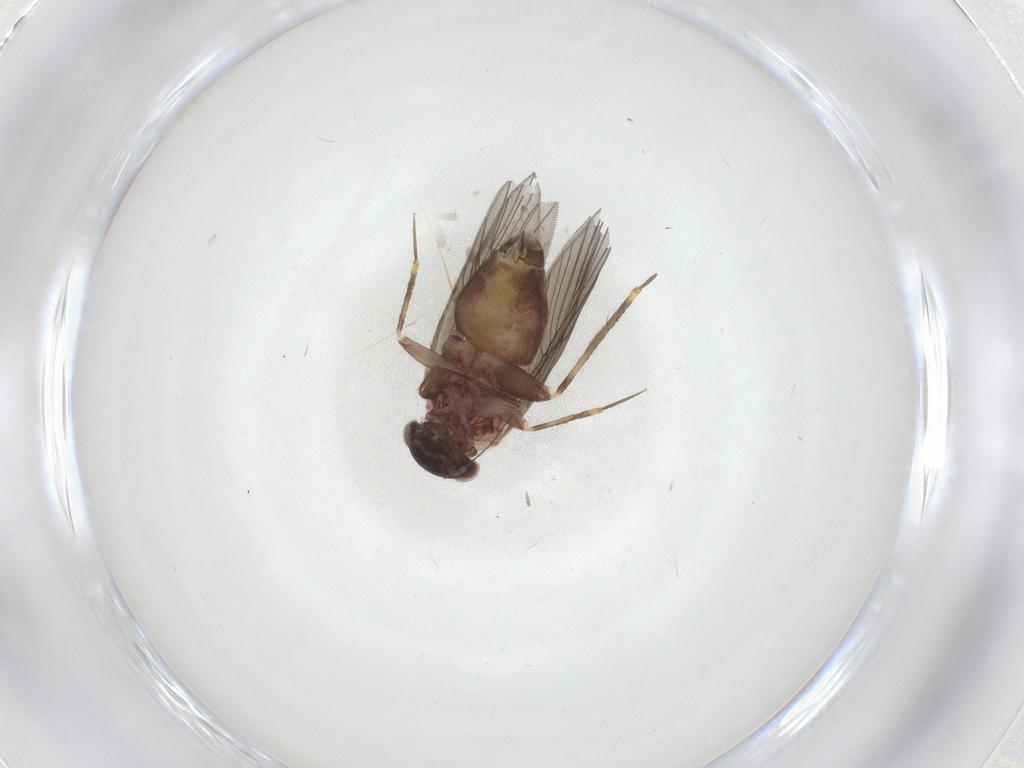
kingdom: Animalia
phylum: Arthropoda
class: Insecta
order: Psocodea
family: Lepidopsocidae
